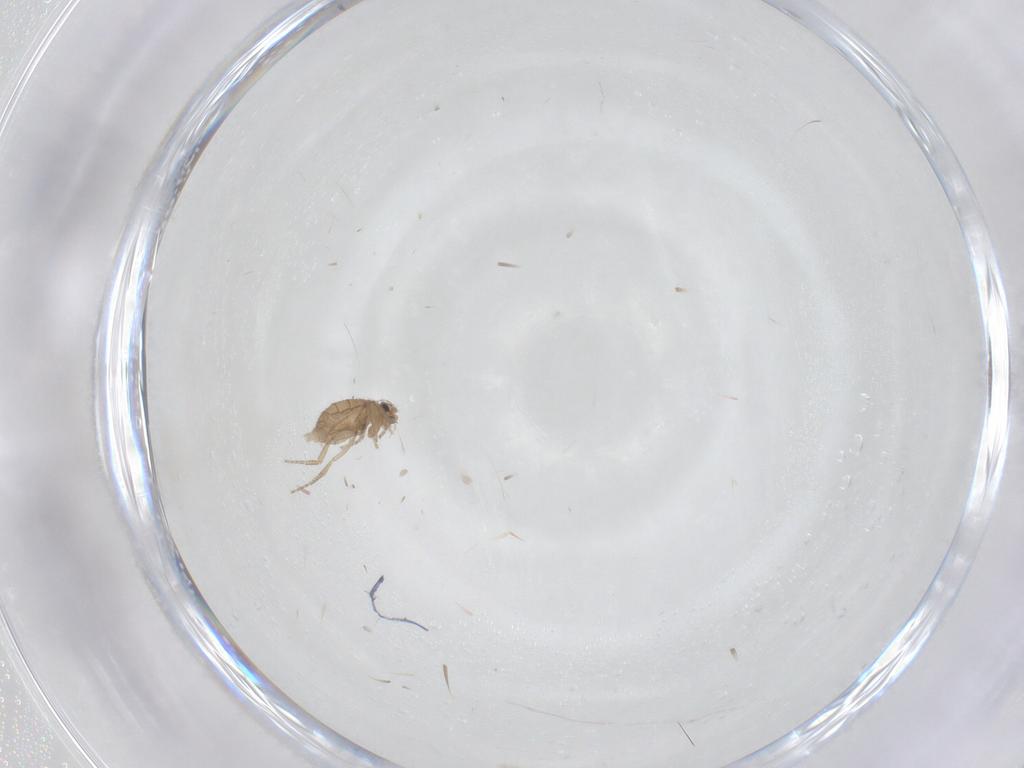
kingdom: Animalia
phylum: Arthropoda
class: Insecta
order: Diptera
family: Phoridae
